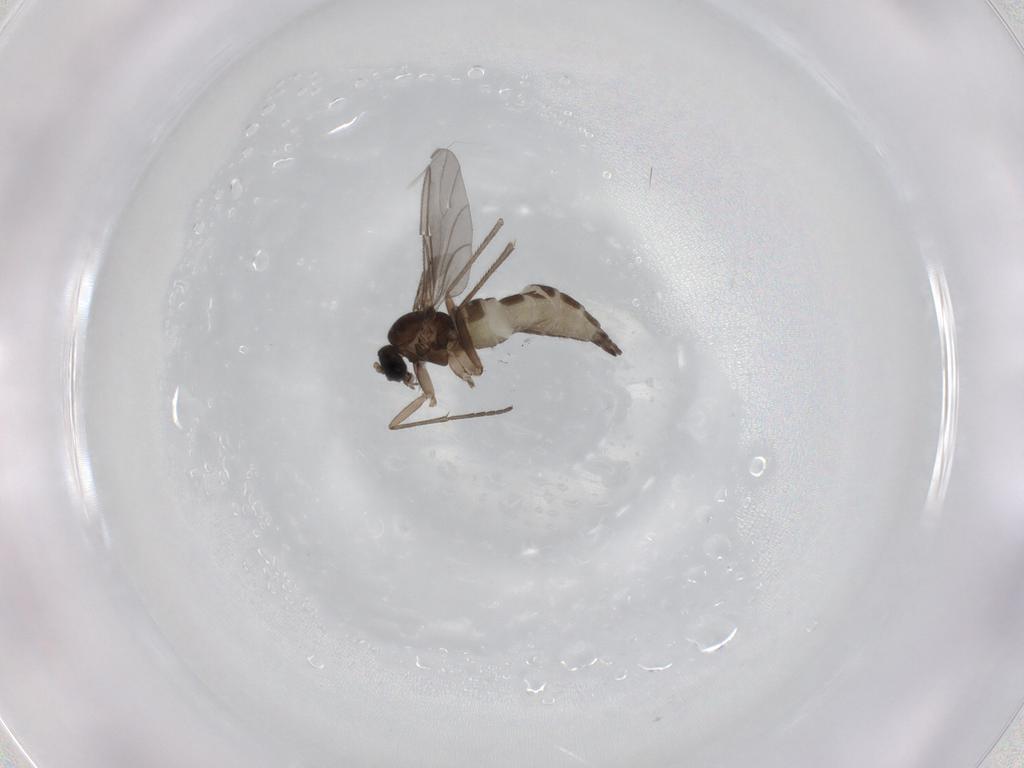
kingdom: Animalia
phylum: Arthropoda
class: Insecta
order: Diptera
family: Sciaridae
